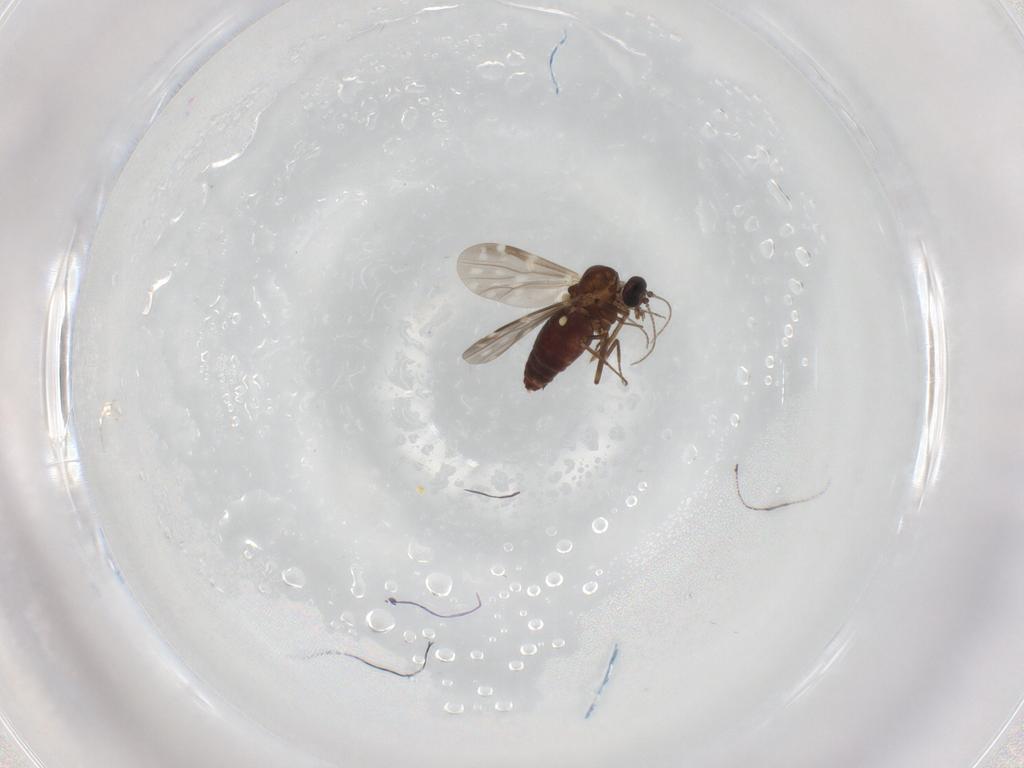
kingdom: Animalia
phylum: Arthropoda
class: Insecta
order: Diptera
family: Ceratopogonidae
